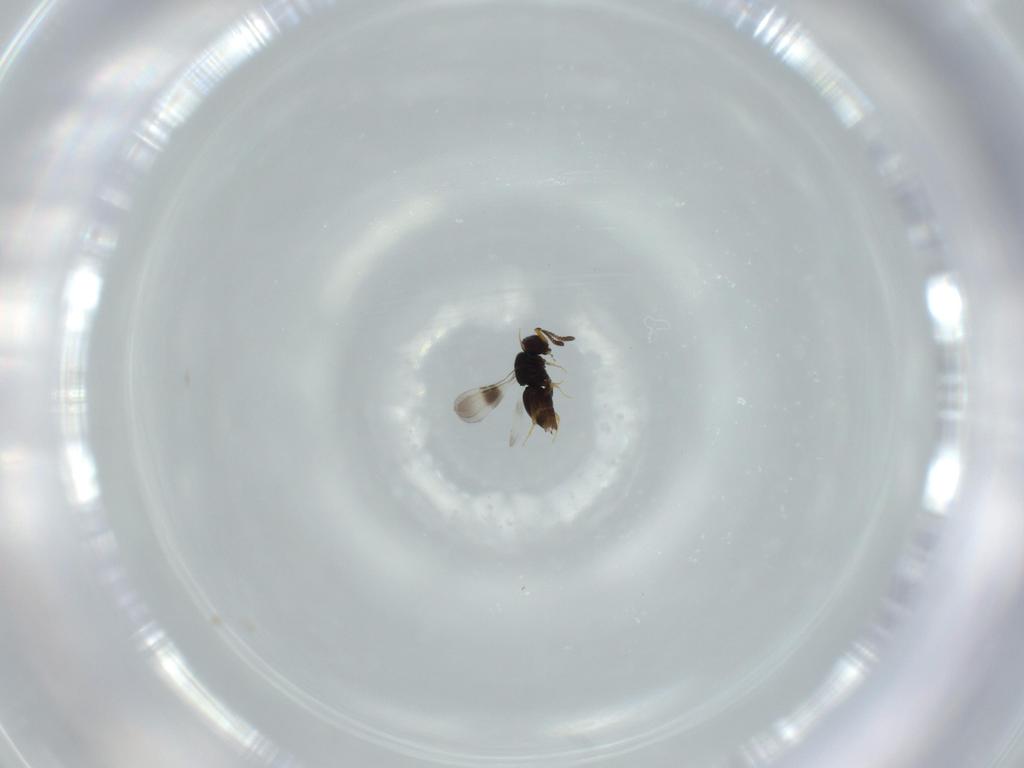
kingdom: Animalia
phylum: Arthropoda
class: Insecta
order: Hymenoptera
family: Ceraphronidae
